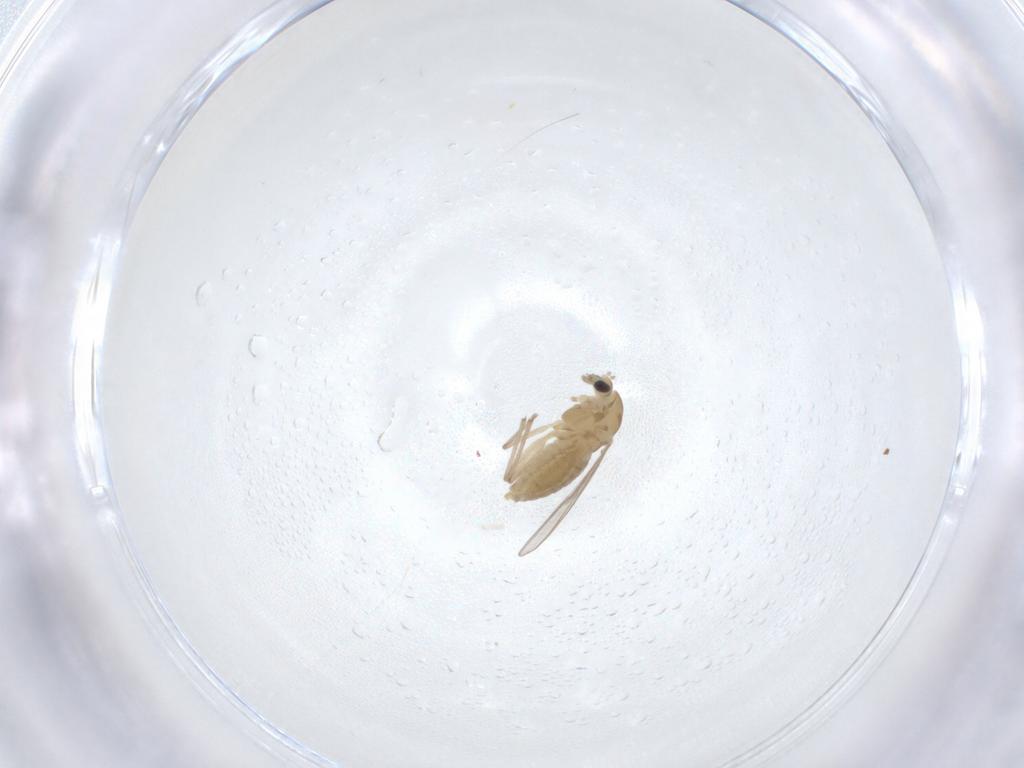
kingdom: Animalia
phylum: Arthropoda
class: Insecta
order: Diptera
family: Chironomidae
